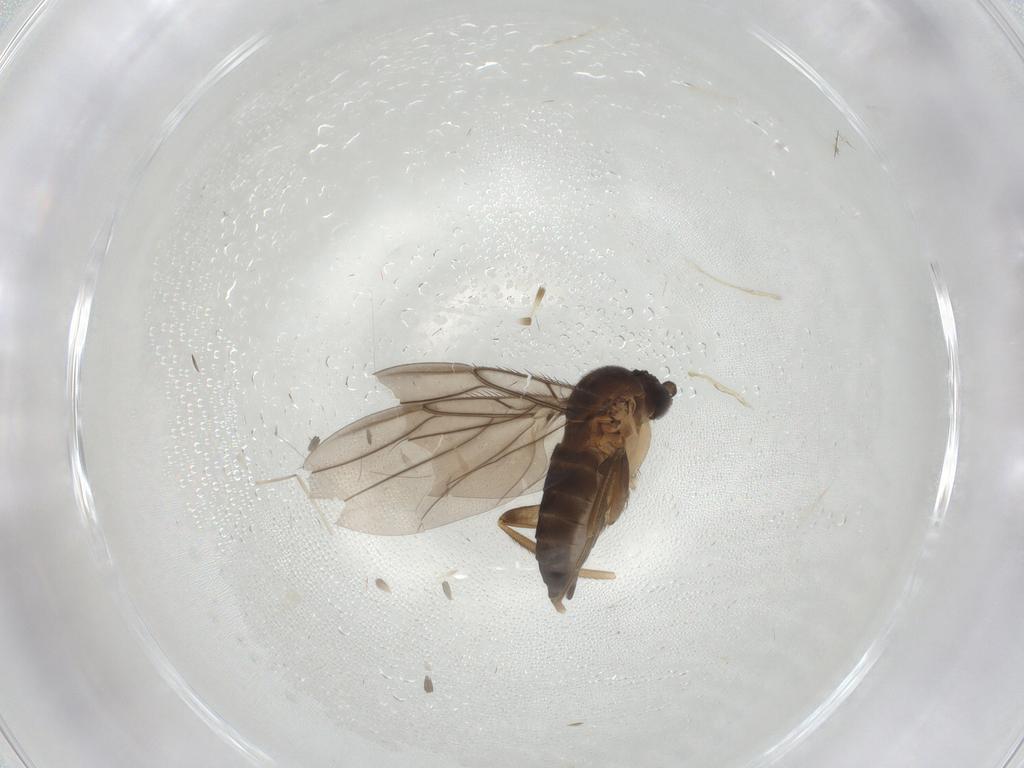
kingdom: Animalia
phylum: Arthropoda
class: Insecta
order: Diptera
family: Phoridae
